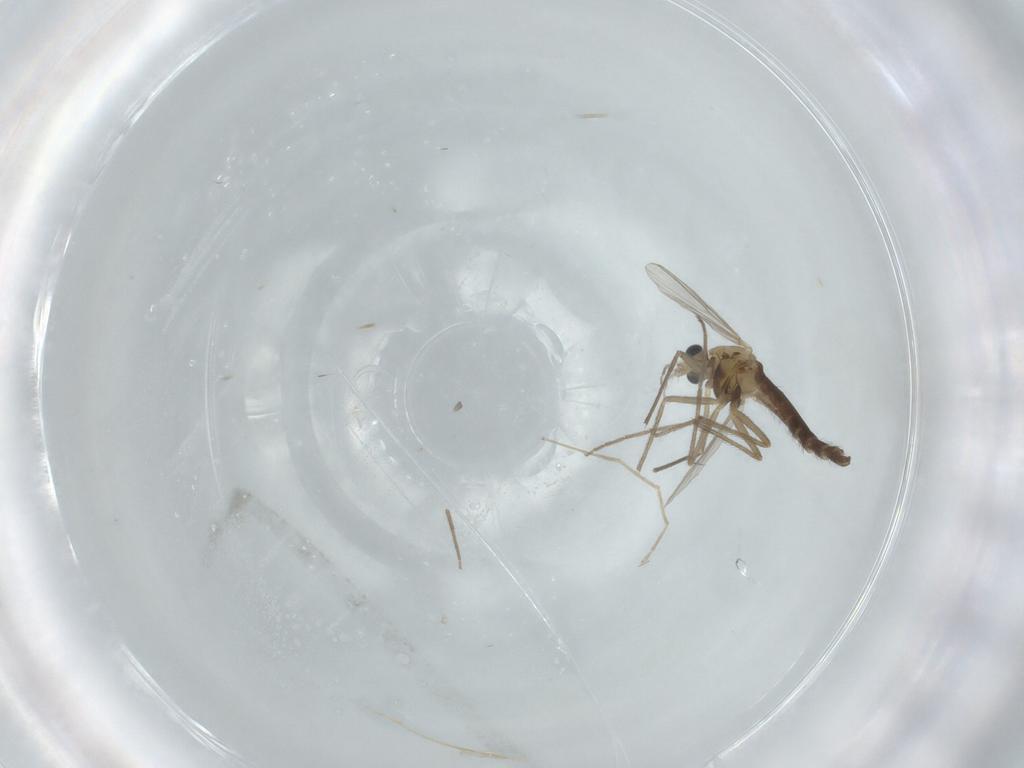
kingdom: Animalia
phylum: Arthropoda
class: Insecta
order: Diptera
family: Chironomidae
